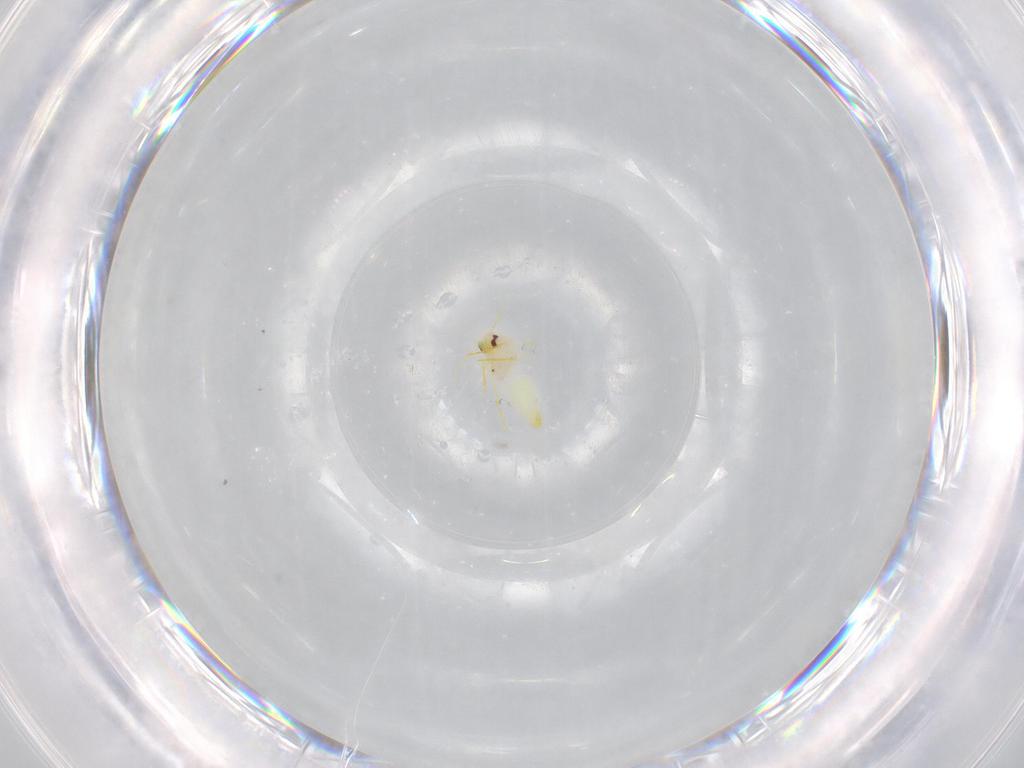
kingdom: Animalia
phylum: Arthropoda
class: Insecta
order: Hemiptera
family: Aleyrodidae
